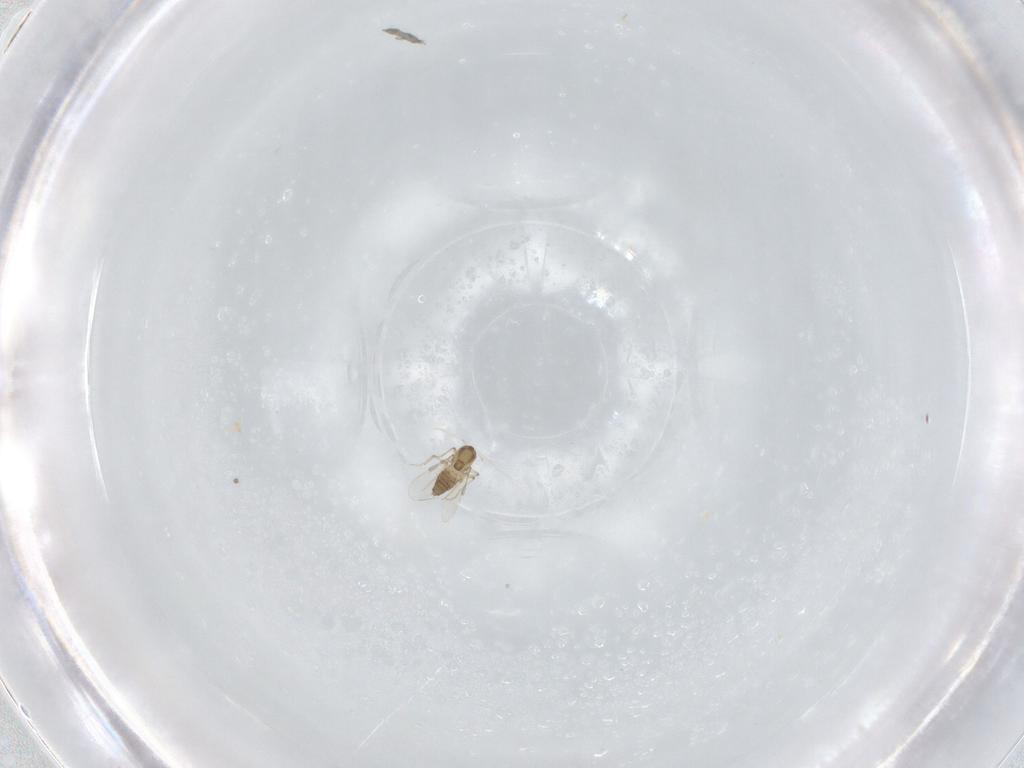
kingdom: Animalia
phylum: Arthropoda
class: Insecta
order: Diptera
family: Chironomidae
